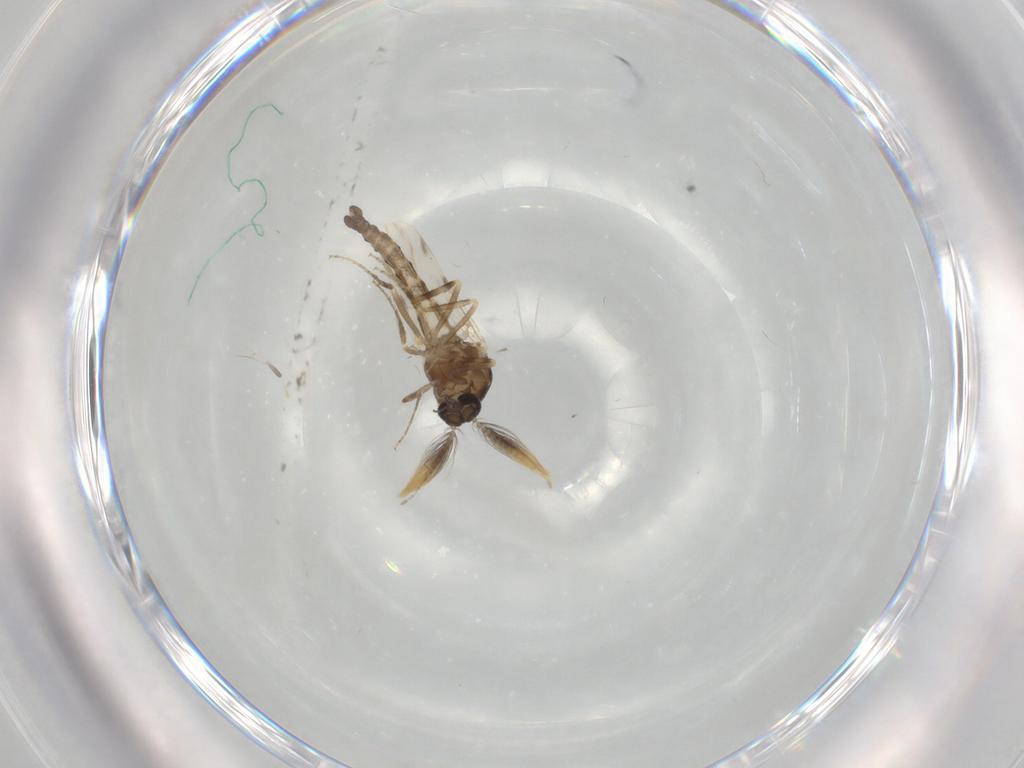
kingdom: Animalia
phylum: Arthropoda
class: Insecta
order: Diptera
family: Ceratopogonidae
